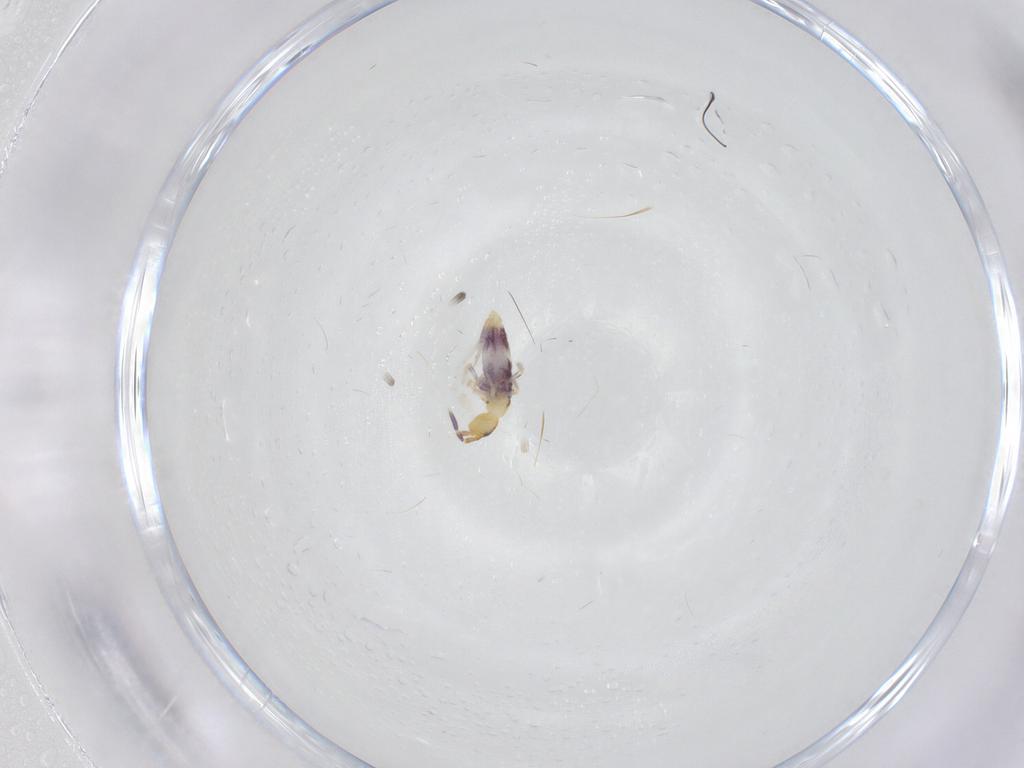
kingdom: Animalia
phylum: Arthropoda
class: Collembola
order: Entomobryomorpha
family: Entomobryidae
